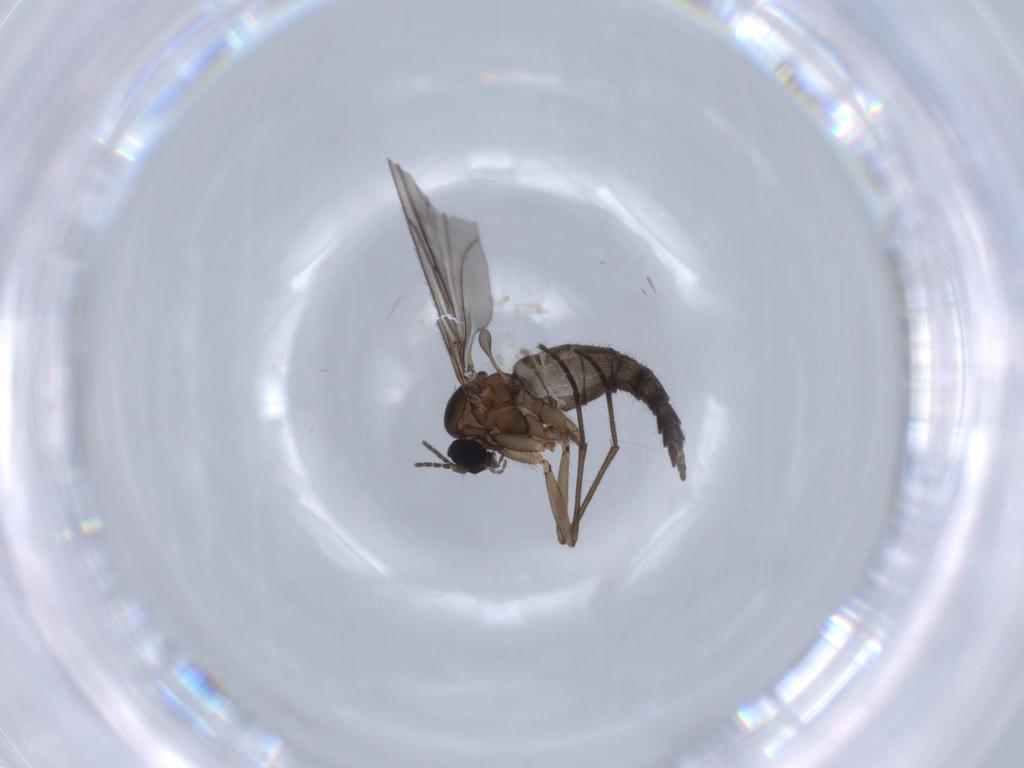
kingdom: Animalia
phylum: Arthropoda
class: Insecta
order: Diptera
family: Sciaridae
